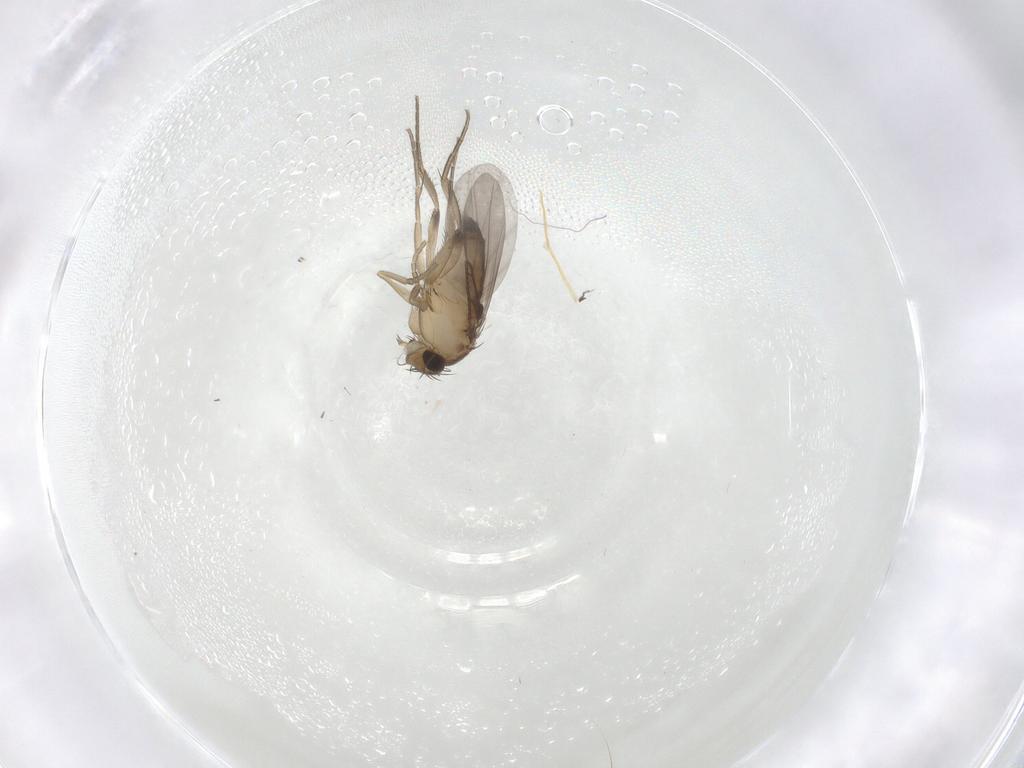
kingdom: Animalia
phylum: Arthropoda
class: Insecta
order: Diptera
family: Phoridae
